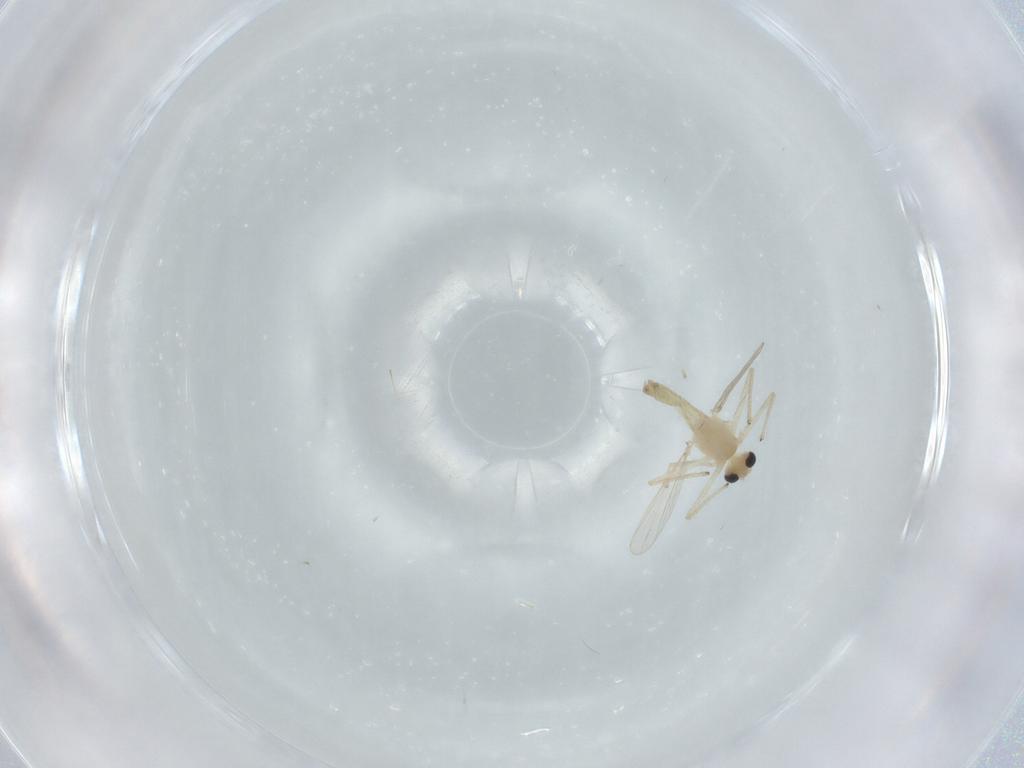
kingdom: Animalia
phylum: Arthropoda
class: Insecta
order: Diptera
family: Chironomidae
